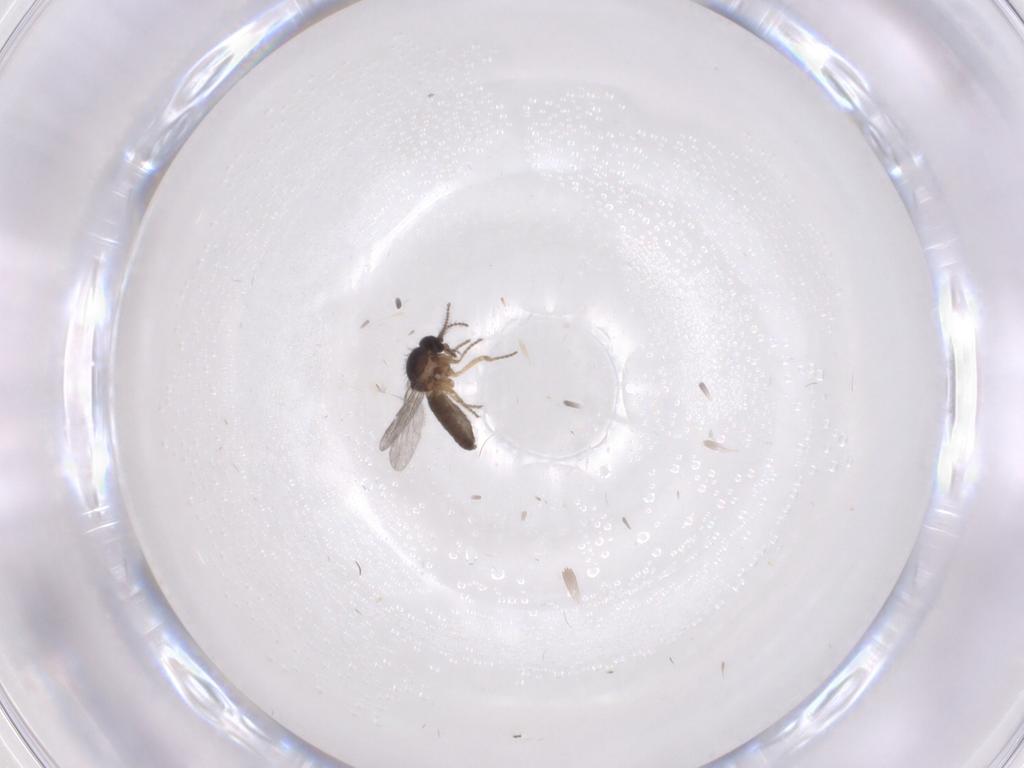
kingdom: Animalia
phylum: Arthropoda
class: Insecta
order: Diptera
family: Ceratopogonidae
